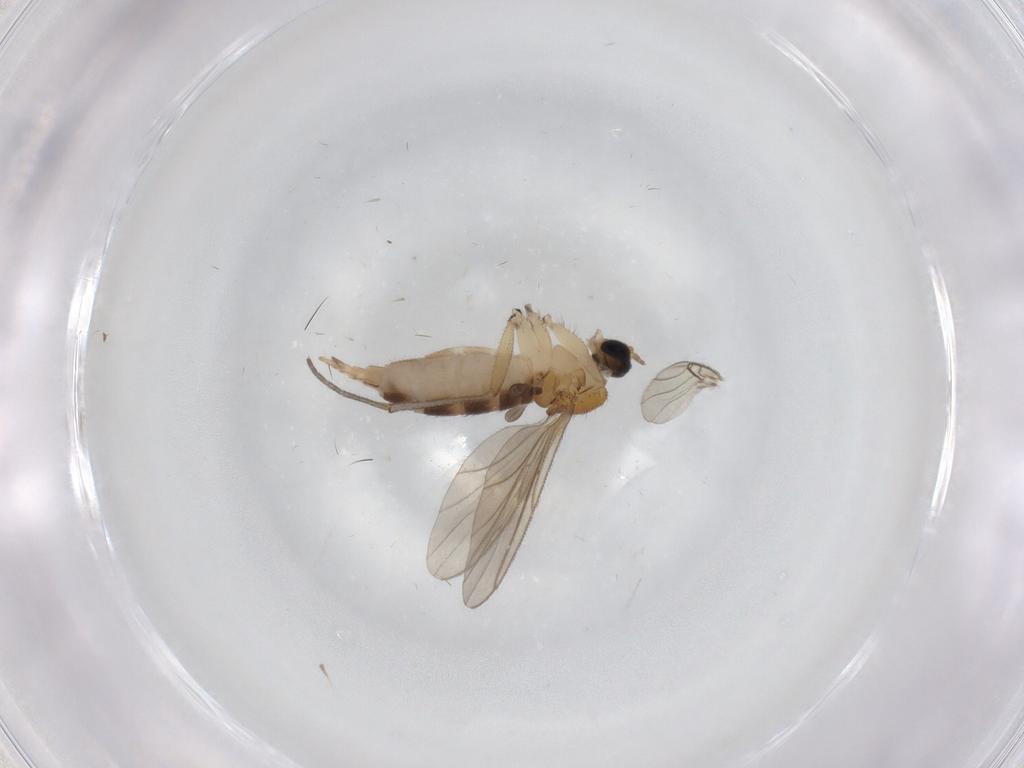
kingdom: Animalia
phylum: Arthropoda
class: Insecta
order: Diptera
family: Sciaridae
